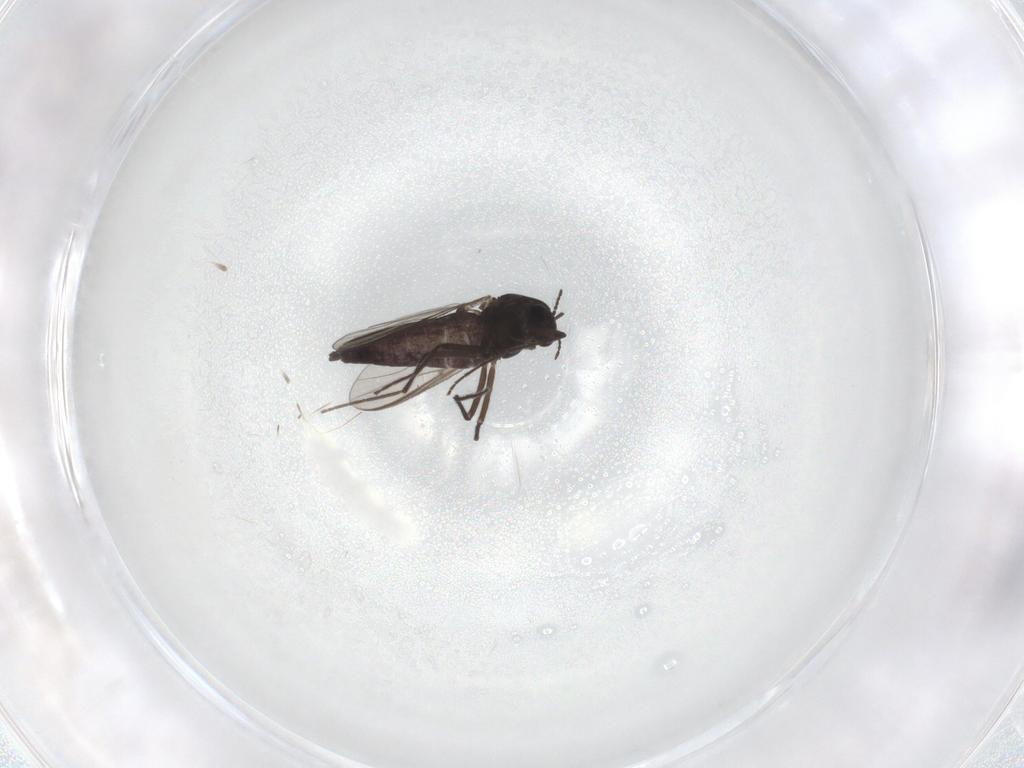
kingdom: Animalia
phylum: Arthropoda
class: Insecta
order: Diptera
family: Chironomidae
